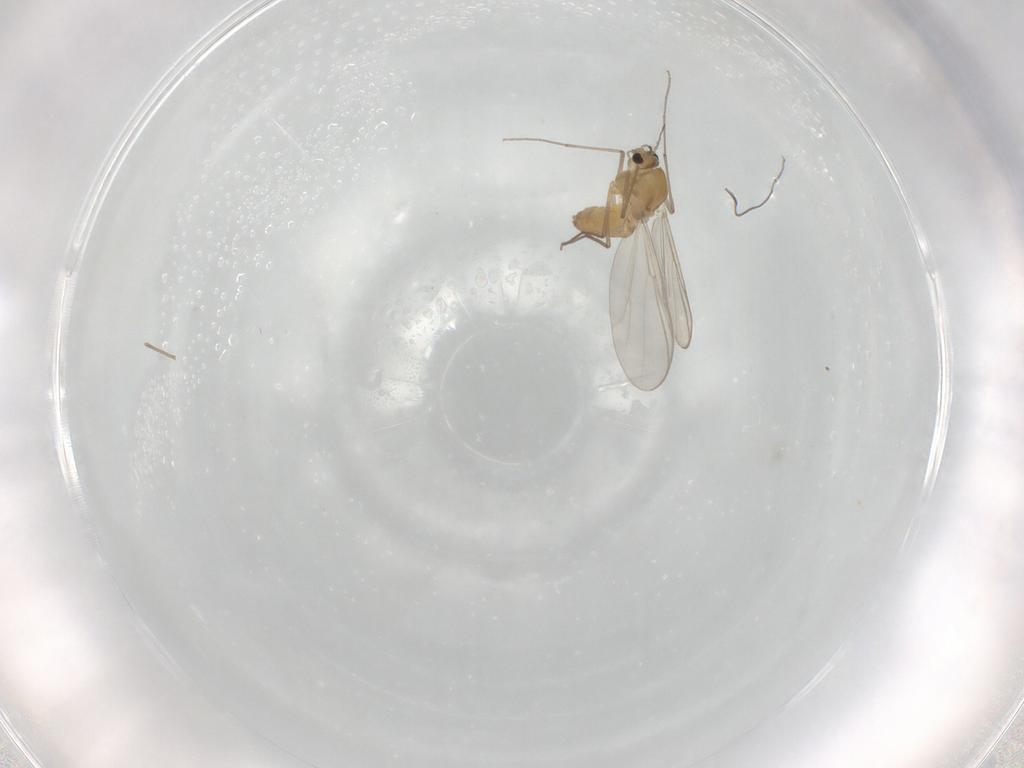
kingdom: Animalia
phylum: Arthropoda
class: Insecta
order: Diptera
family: Chironomidae
